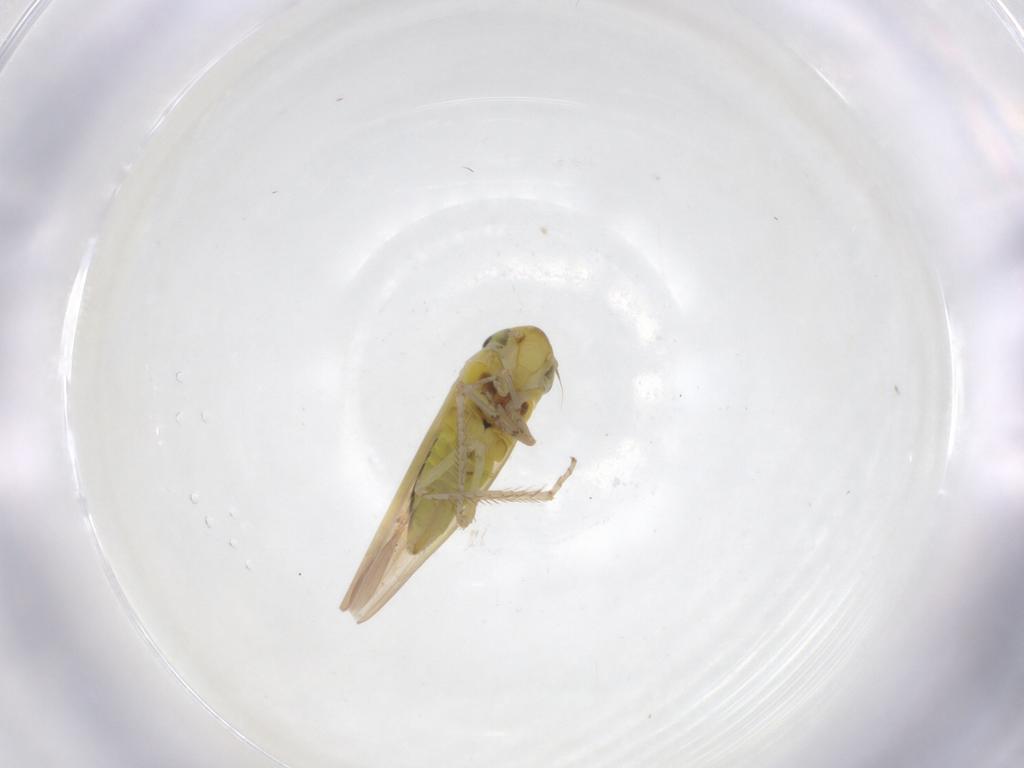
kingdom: Animalia
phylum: Arthropoda
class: Insecta
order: Hemiptera
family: Cicadellidae
